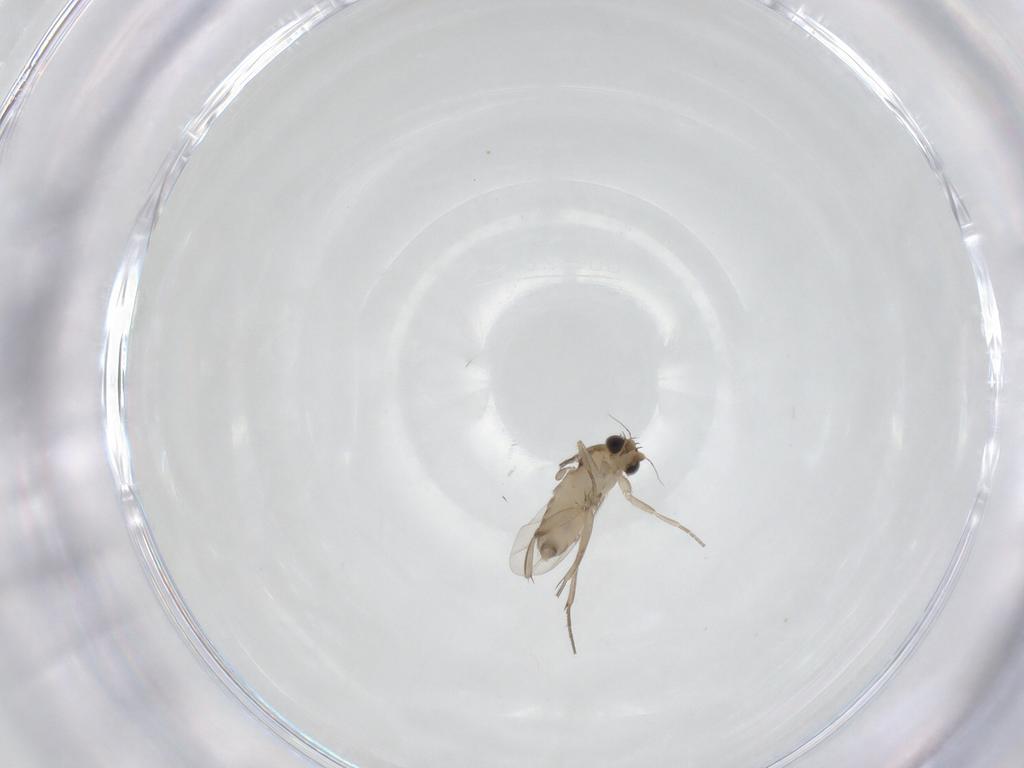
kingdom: Animalia
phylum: Arthropoda
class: Insecta
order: Diptera
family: Phoridae
